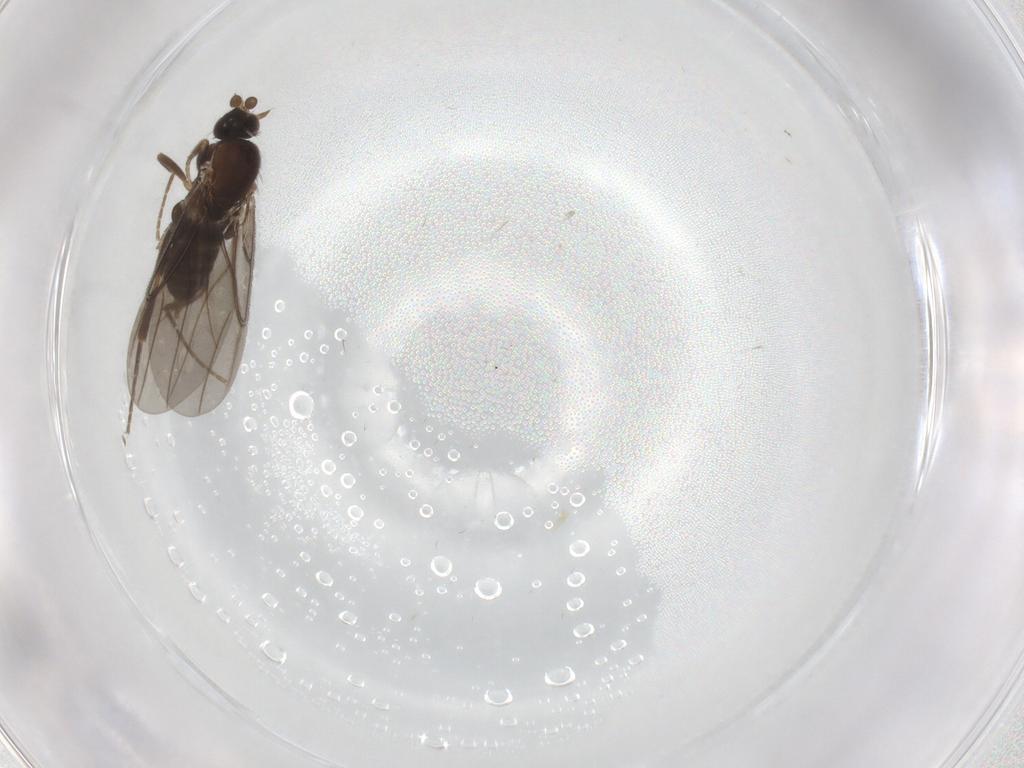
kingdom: Animalia
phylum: Arthropoda
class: Insecta
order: Diptera
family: Phoridae
